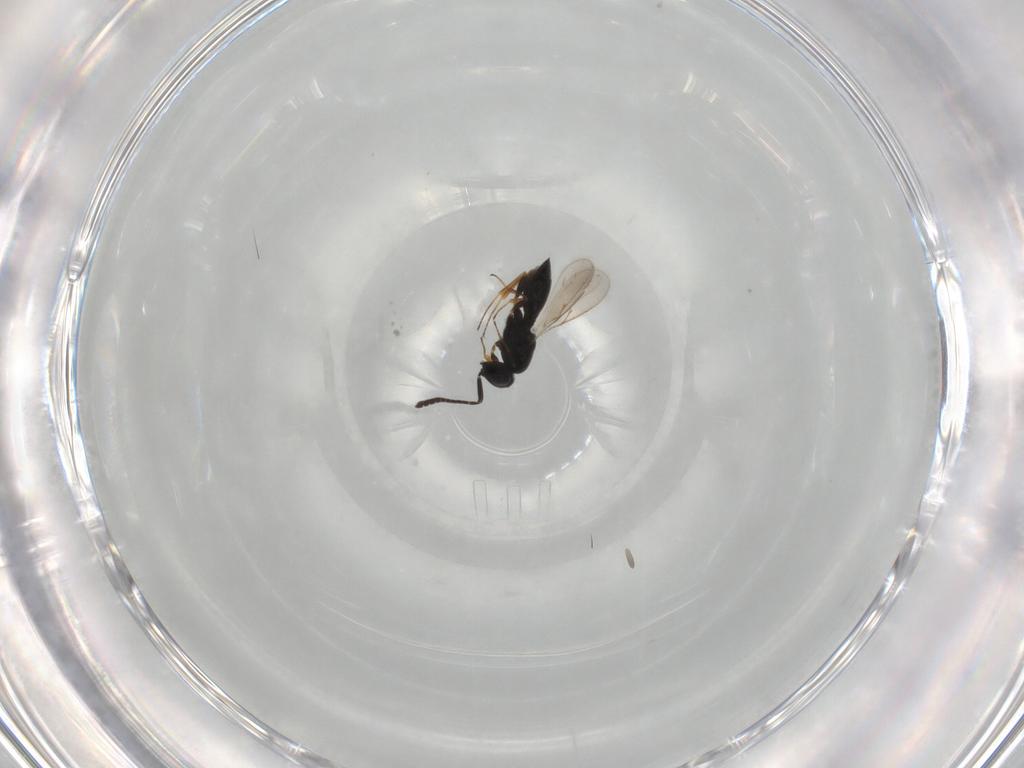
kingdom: Animalia
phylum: Arthropoda
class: Insecta
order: Hymenoptera
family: Scelionidae
